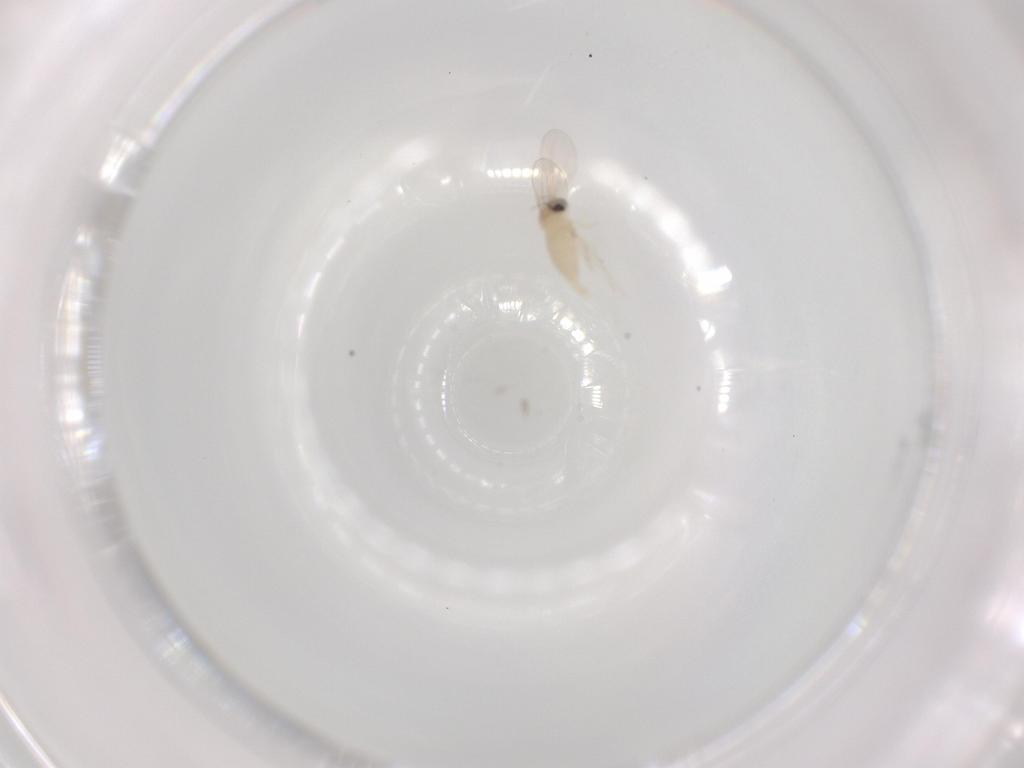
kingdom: Animalia
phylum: Arthropoda
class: Insecta
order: Diptera
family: Cecidomyiidae
